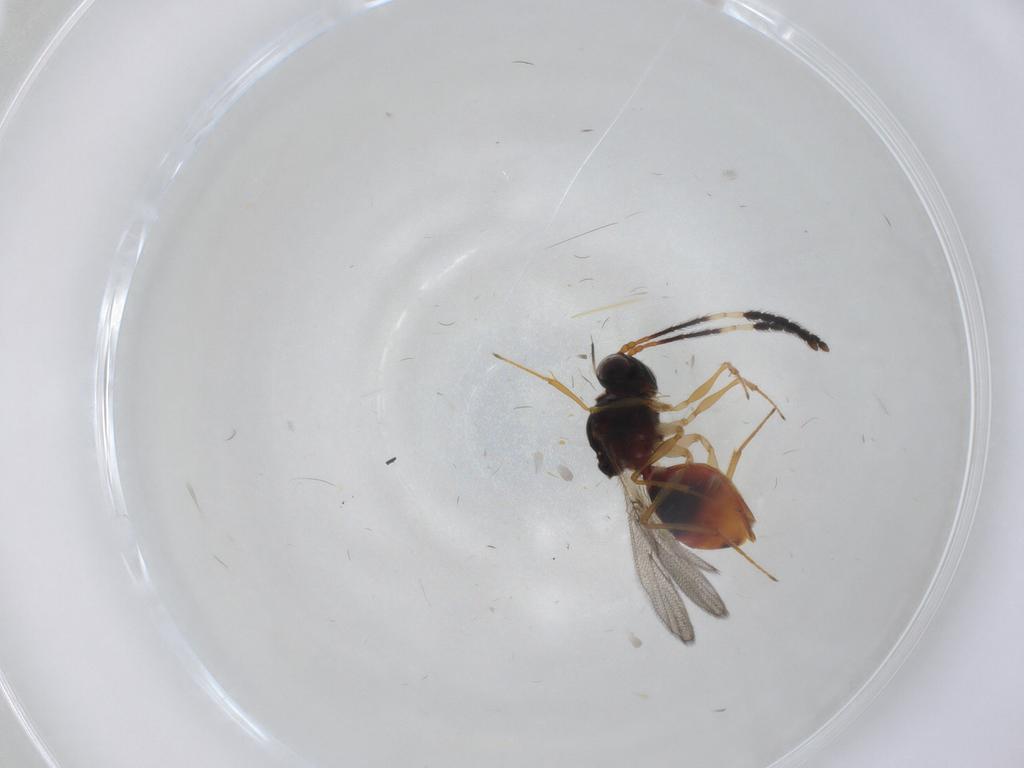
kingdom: Animalia
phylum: Arthropoda
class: Insecta
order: Hymenoptera
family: Figitidae
